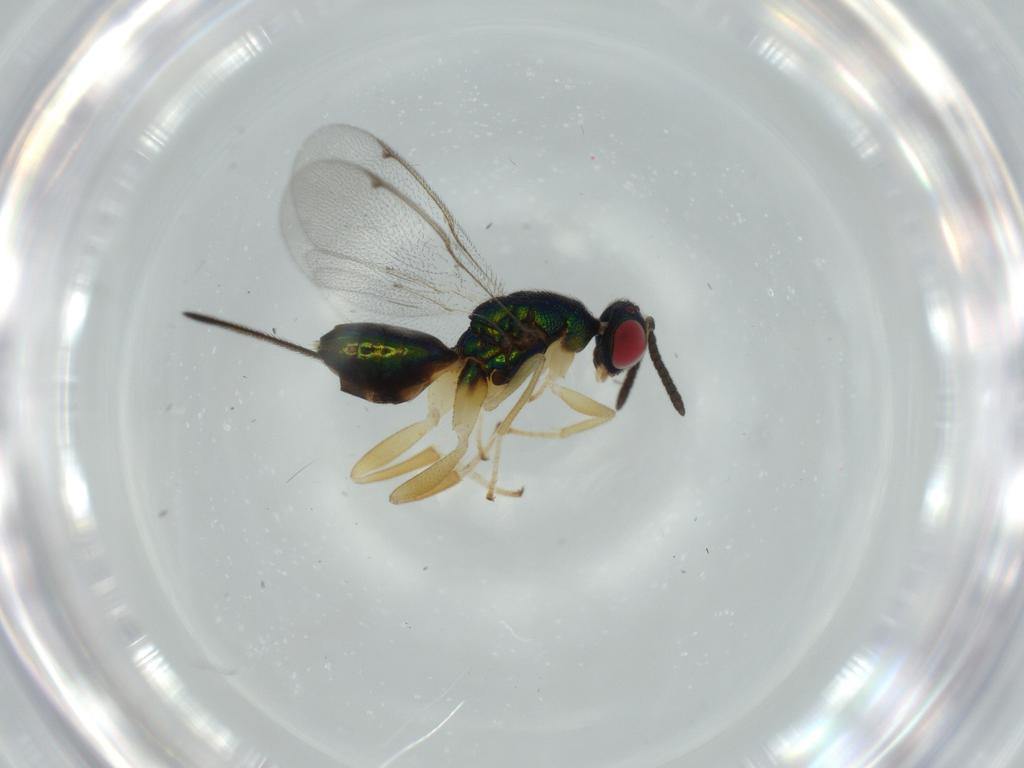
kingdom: Animalia
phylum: Arthropoda
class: Insecta
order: Hymenoptera
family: Torymidae
